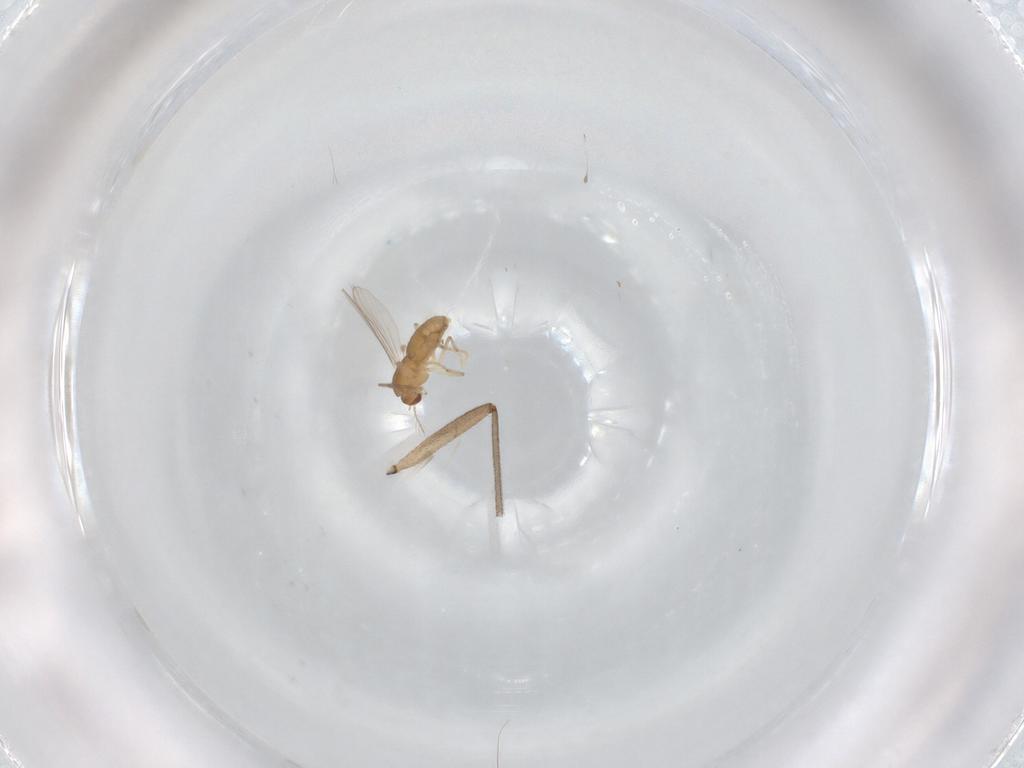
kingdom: Animalia
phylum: Arthropoda
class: Insecta
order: Diptera
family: Chironomidae
